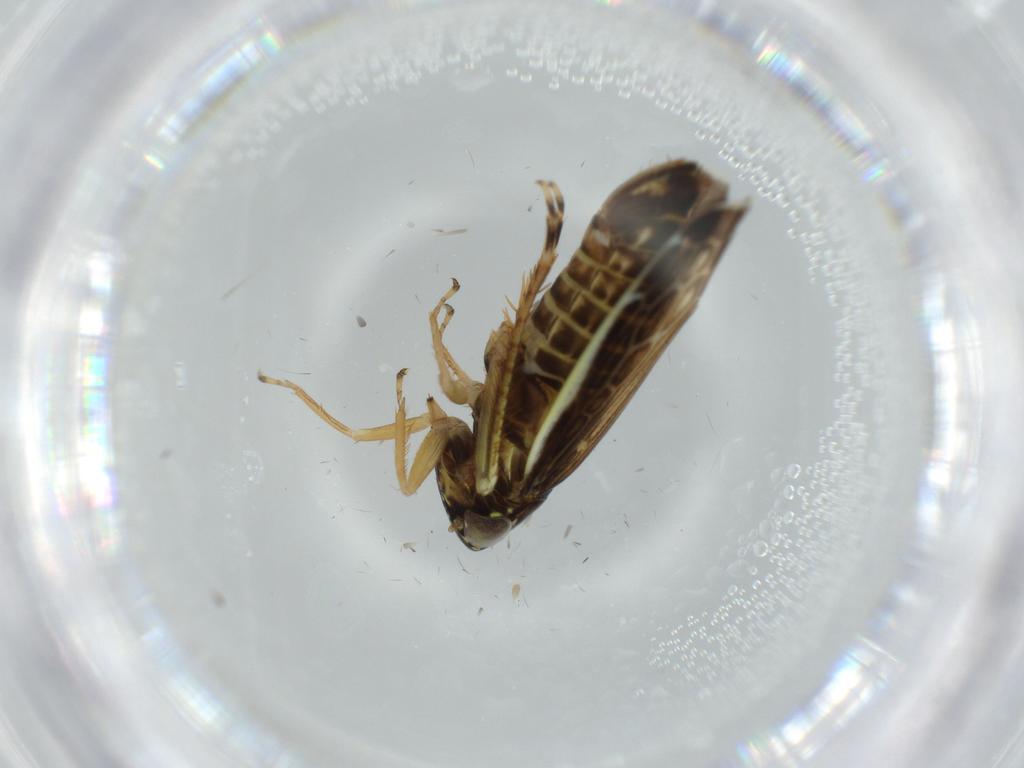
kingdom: Animalia
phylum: Arthropoda
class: Insecta
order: Hemiptera
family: Cicadellidae
